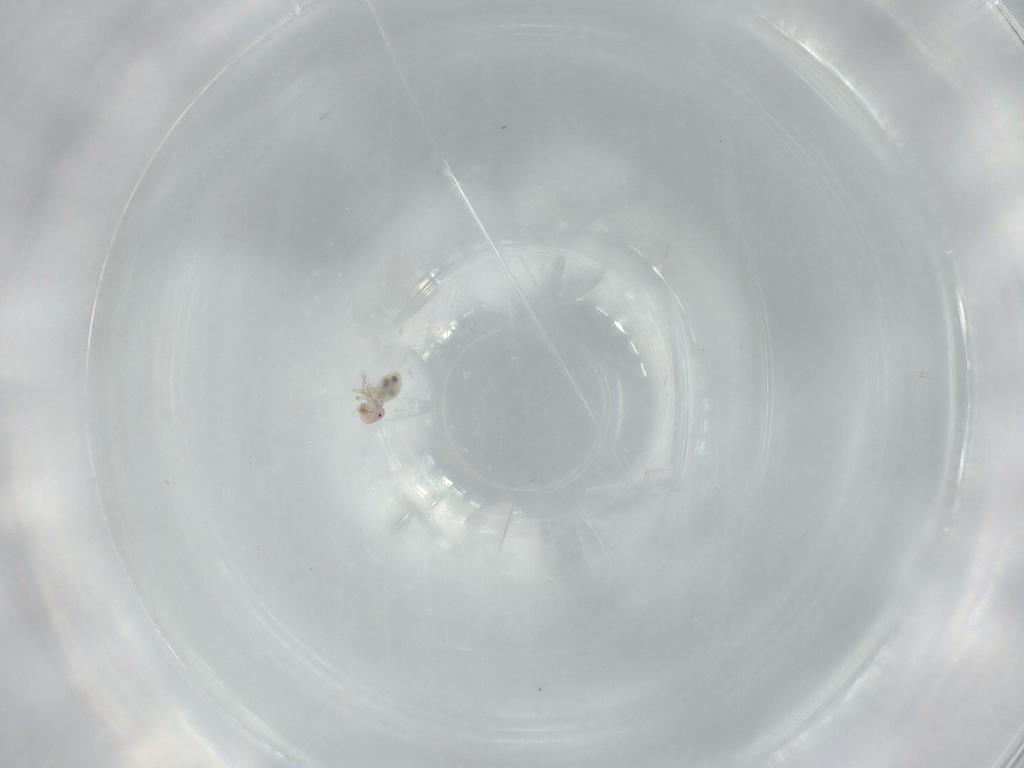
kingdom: Animalia
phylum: Arthropoda
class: Insecta
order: Psocodea
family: Asiopsocidae
